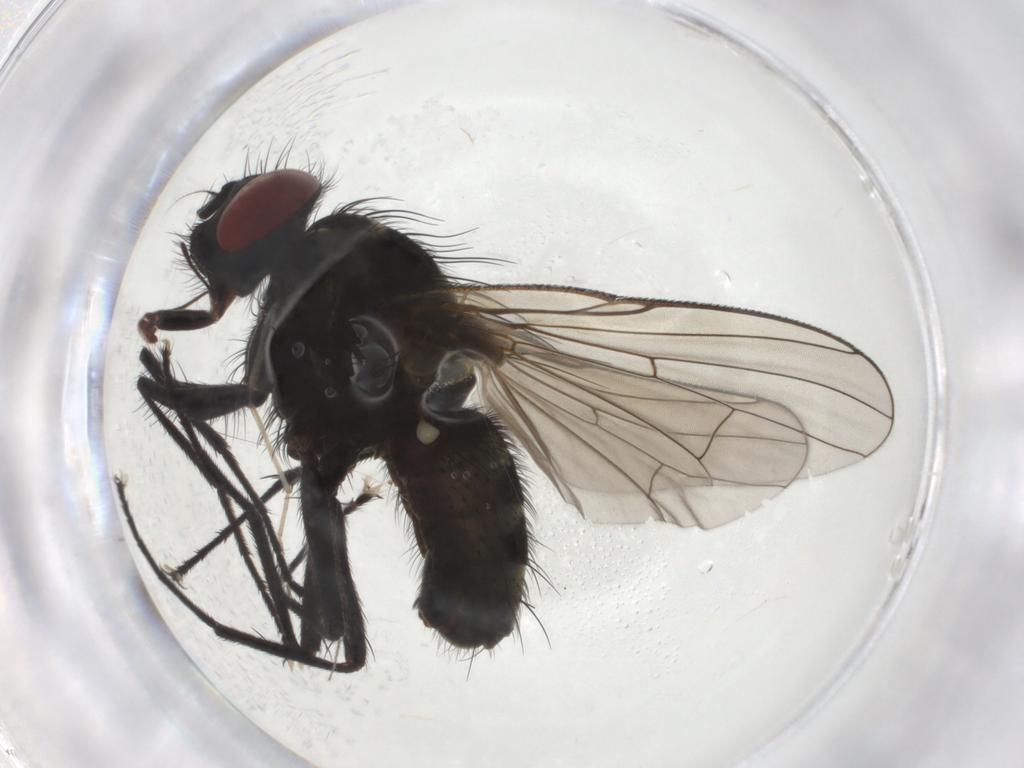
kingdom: Animalia
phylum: Arthropoda
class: Insecta
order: Diptera
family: Muscidae
